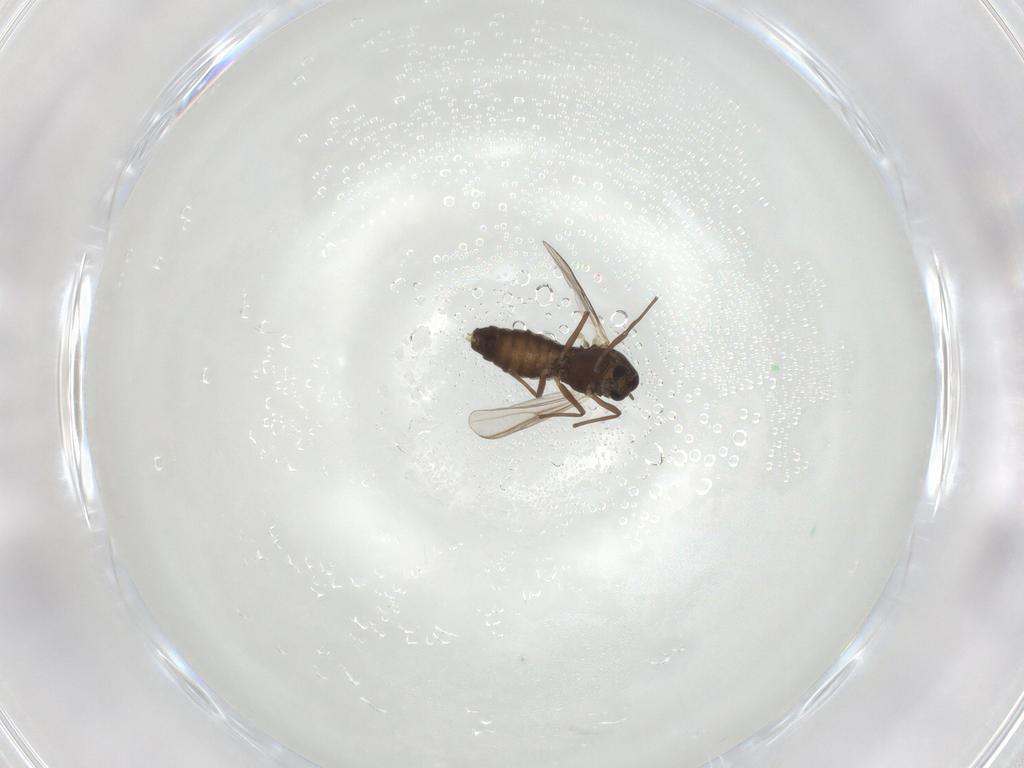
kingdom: Animalia
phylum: Arthropoda
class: Insecta
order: Diptera
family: Chironomidae
